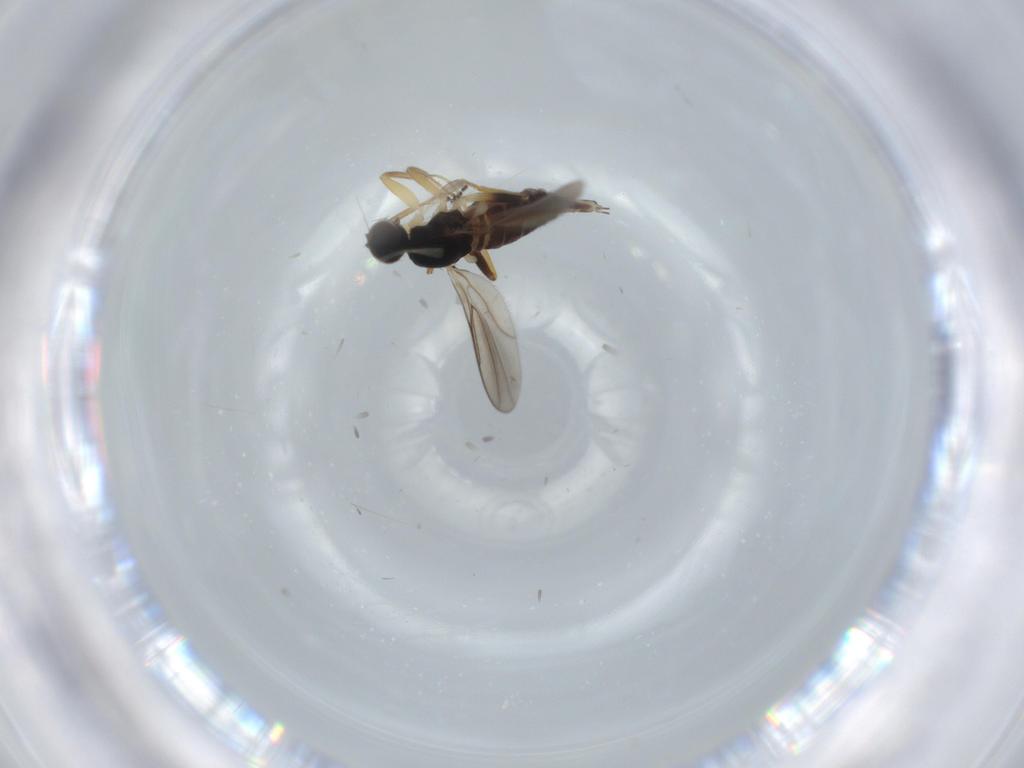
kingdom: Animalia
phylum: Arthropoda
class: Insecta
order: Diptera
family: Hybotidae
